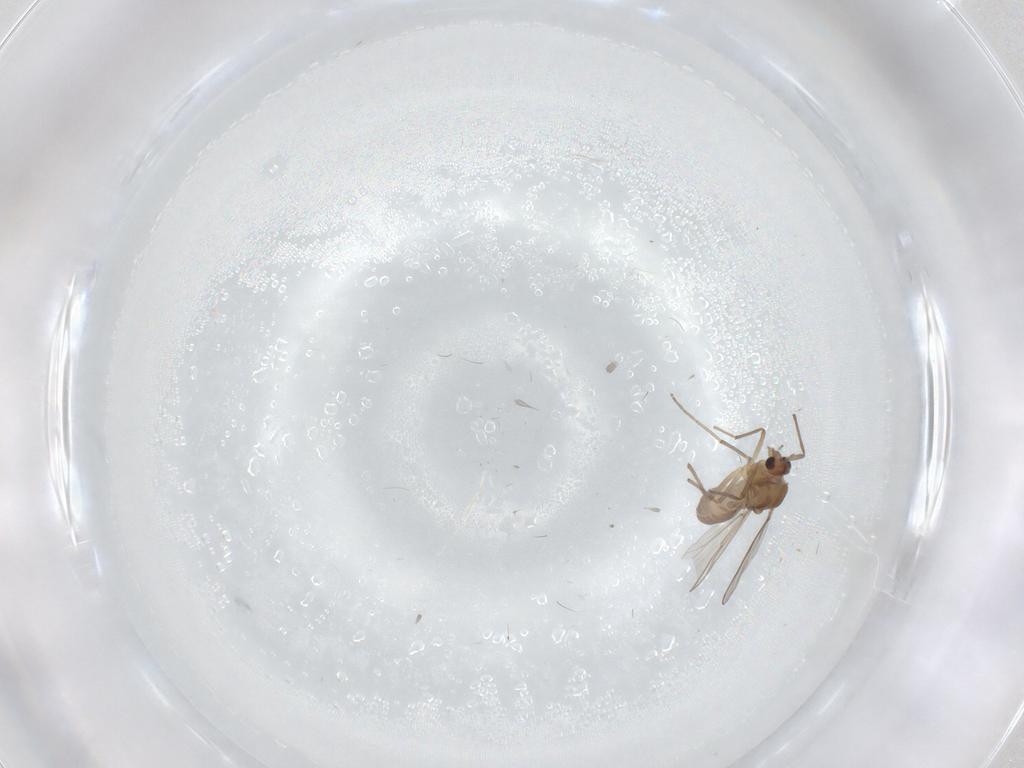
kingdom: Animalia
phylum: Arthropoda
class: Insecta
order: Diptera
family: Chironomidae
